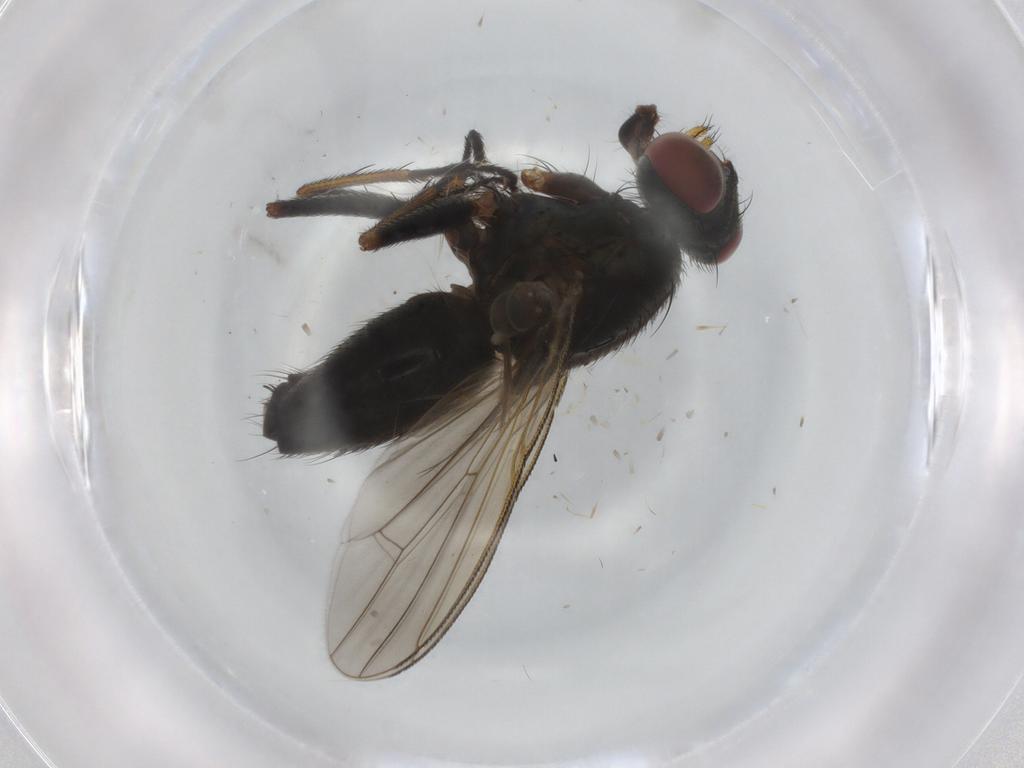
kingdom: Animalia
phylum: Arthropoda
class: Insecta
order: Diptera
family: Muscidae
